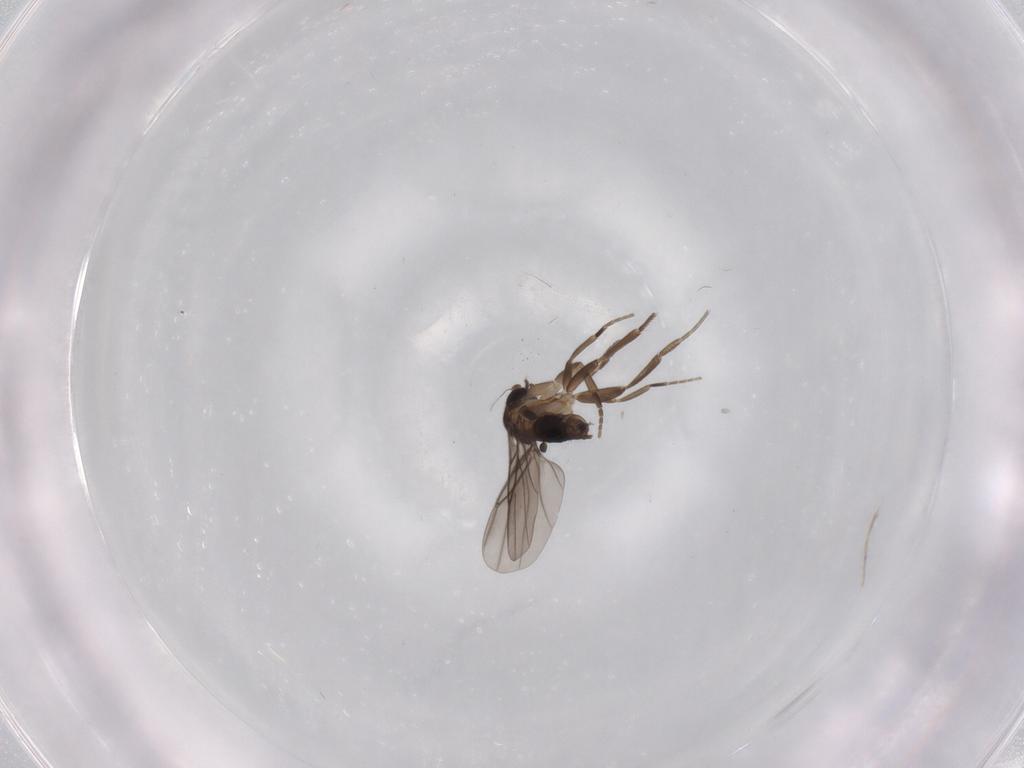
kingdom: Animalia
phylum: Arthropoda
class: Insecta
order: Diptera
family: Phoridae
